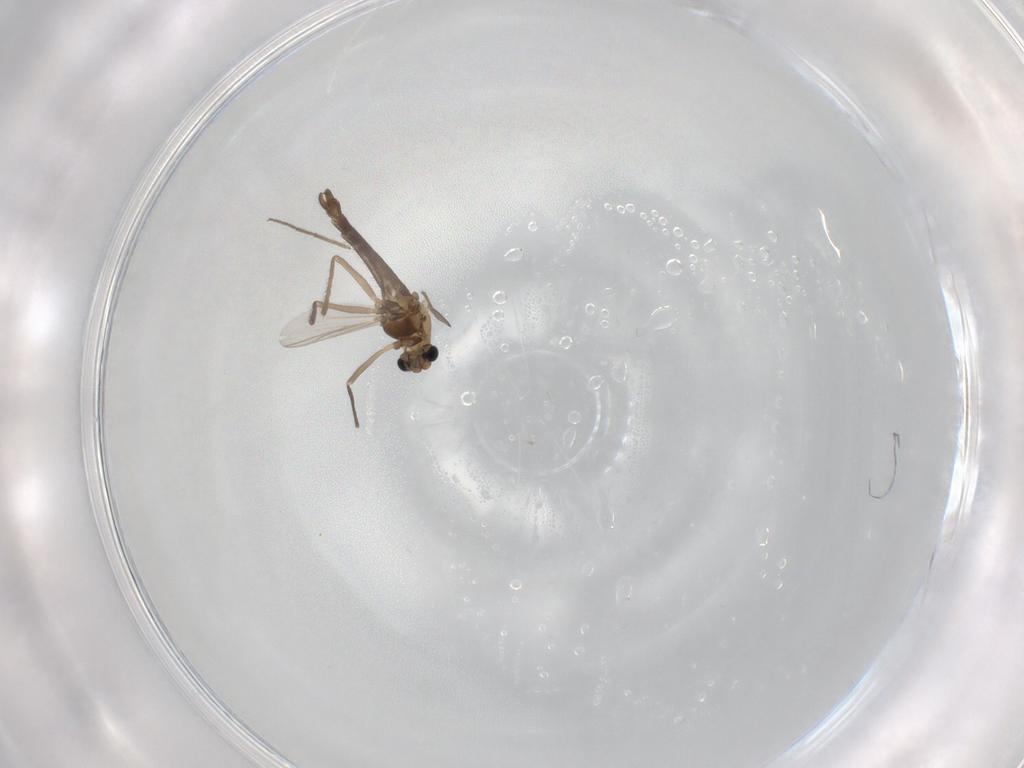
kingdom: Animalia
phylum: Arthropoda
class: Insecta
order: Diptera
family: Chironomidae
